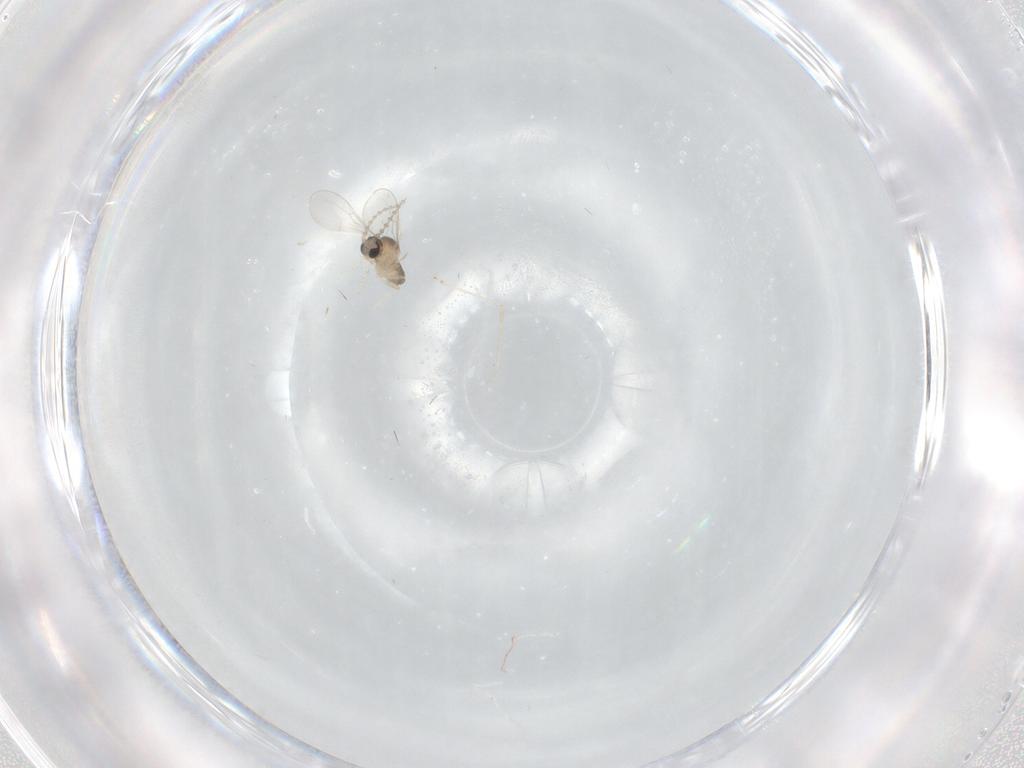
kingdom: Animalia
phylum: Arthropoda
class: Insecta
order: Diptera
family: Cecidomyiidae
